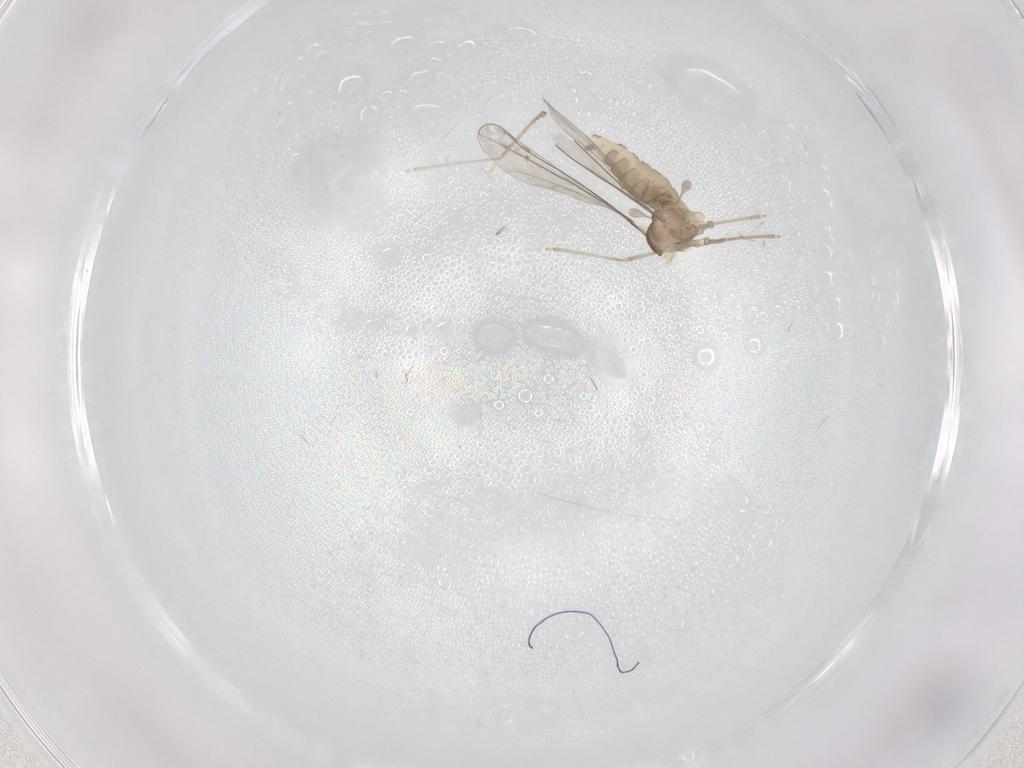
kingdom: Animalia
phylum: Arthropoda
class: Insecta
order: Diptera
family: Cecidomyiidae
